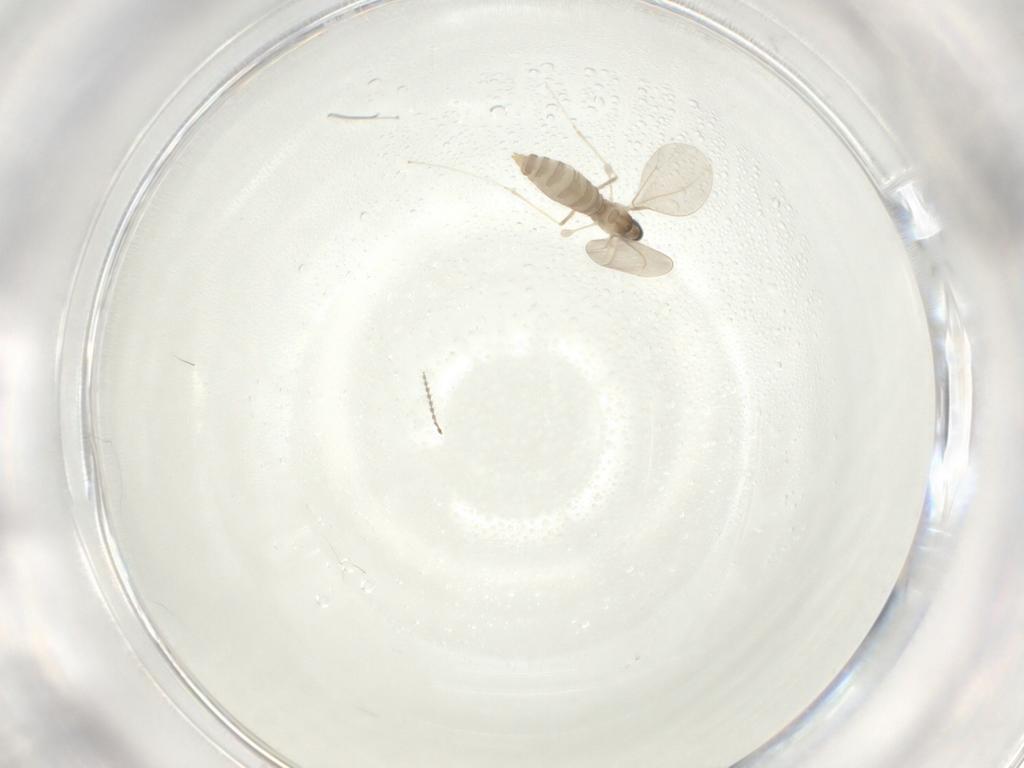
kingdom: Animalia
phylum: Arthropoda
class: Insecta
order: Diptera
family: Cecidomyiidae
